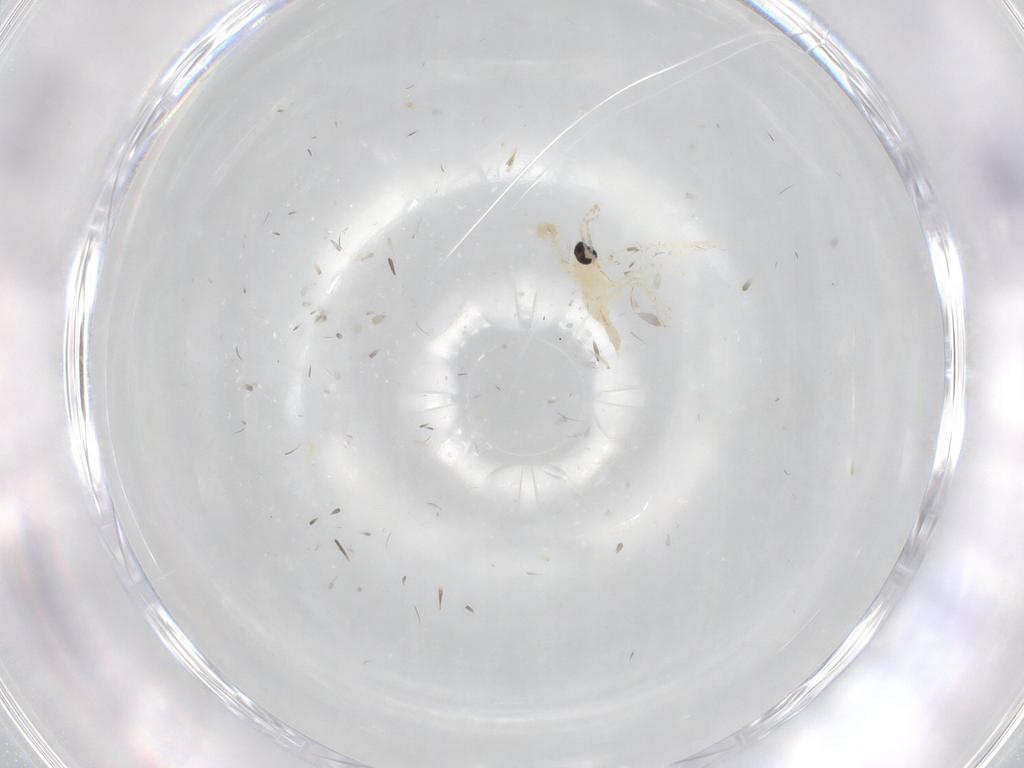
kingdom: Animalia
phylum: Arthropoda
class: Insecta
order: Diptera
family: Cecidomyiidae
